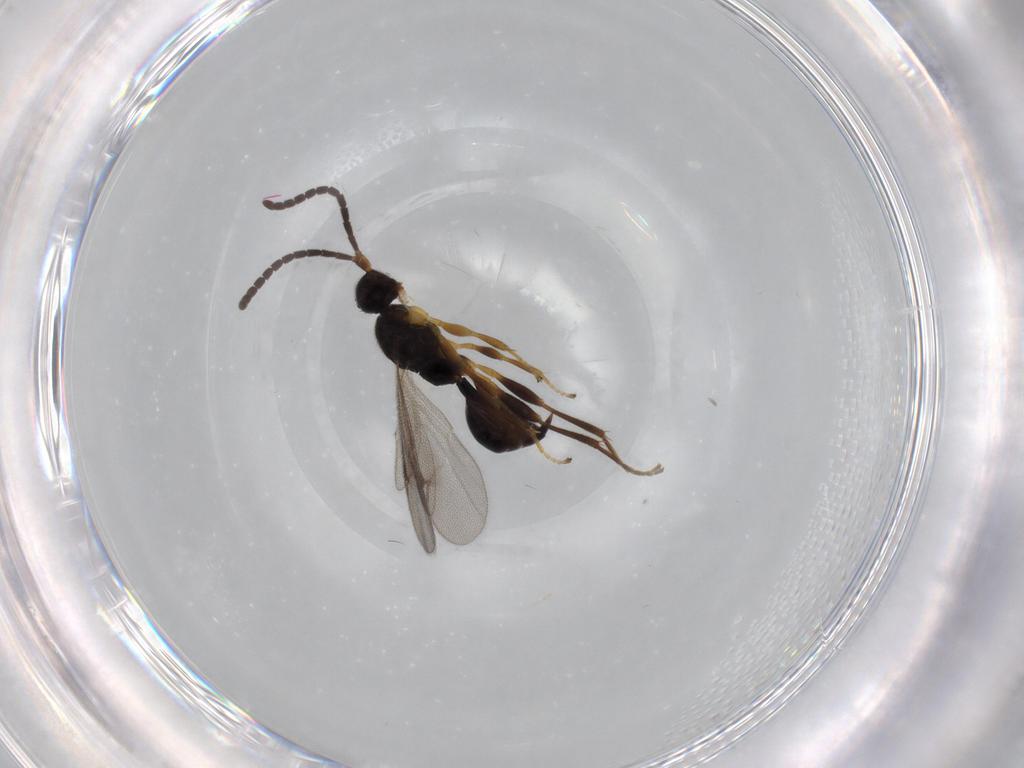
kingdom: Animalia
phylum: Arthropoda
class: Insecta
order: Hymenoptera
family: Proctotrupidae
